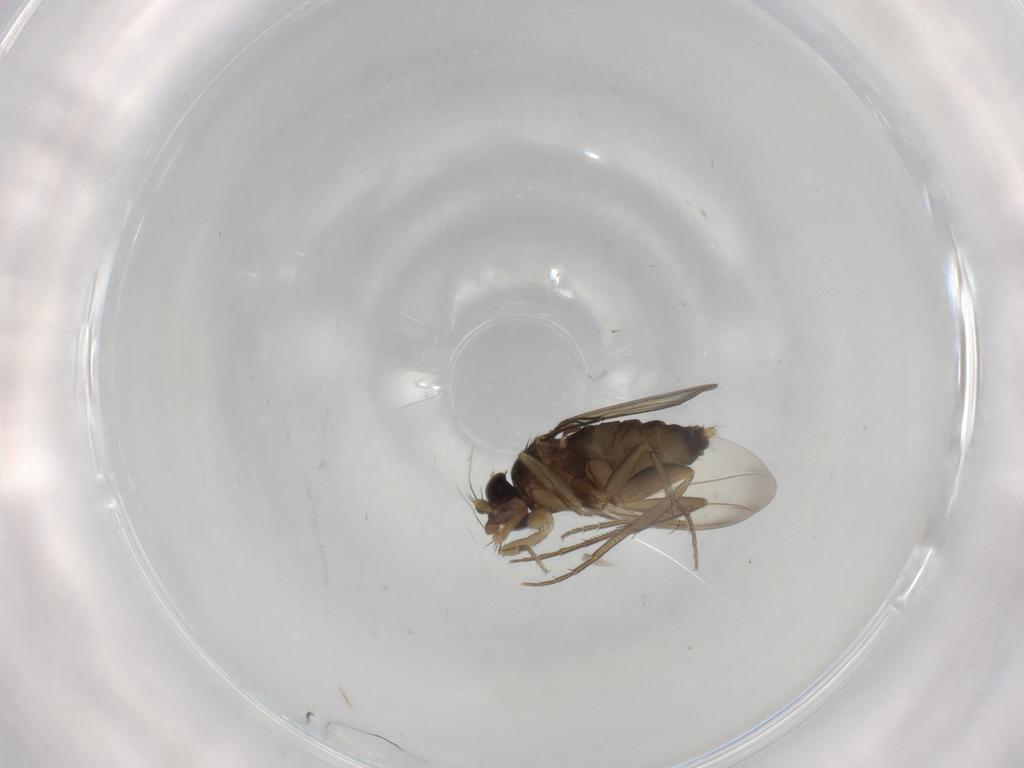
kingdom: Animalia
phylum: Arthropoda
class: Insecta
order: Diptera
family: Phoridae
